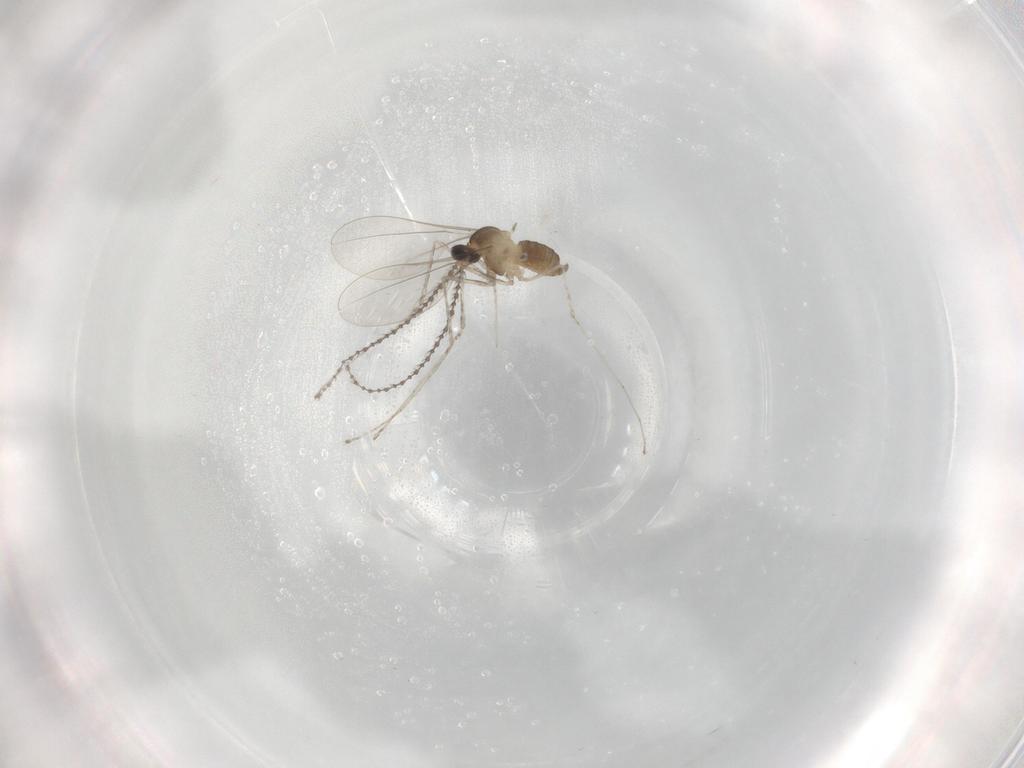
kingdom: Animalia
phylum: Arthropoda
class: Insecta
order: Diptera
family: Cecidomyiidae
